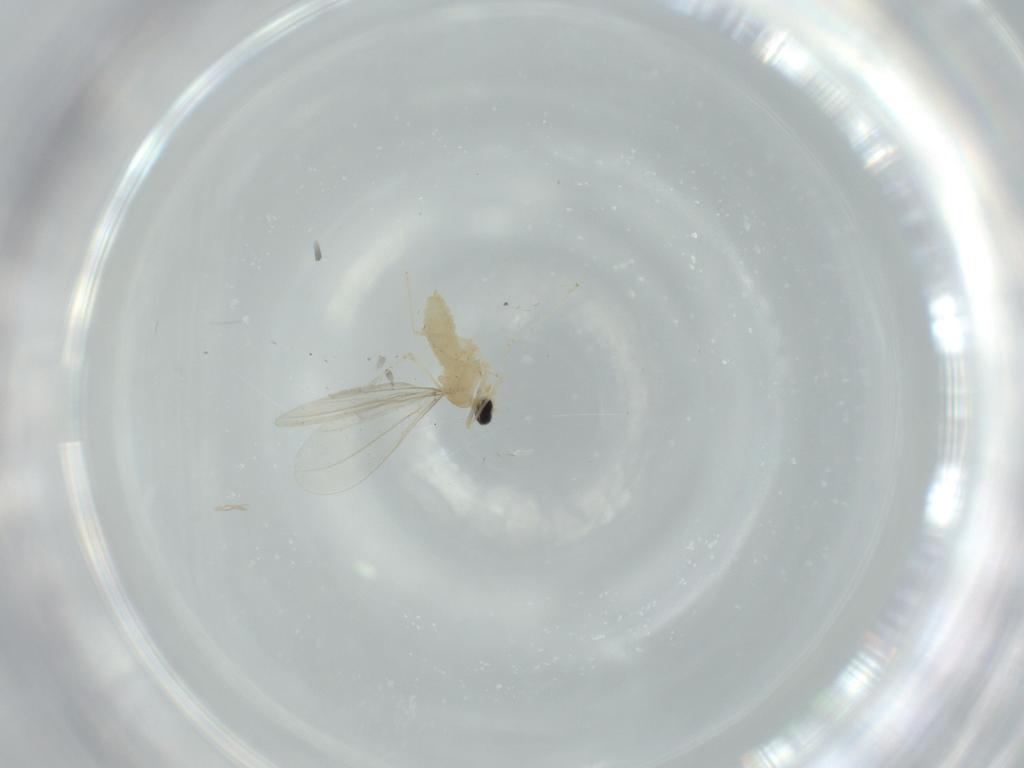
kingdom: Animalia
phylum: Arthropoda
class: Insecta
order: Diptera
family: Cecidomyiidae
